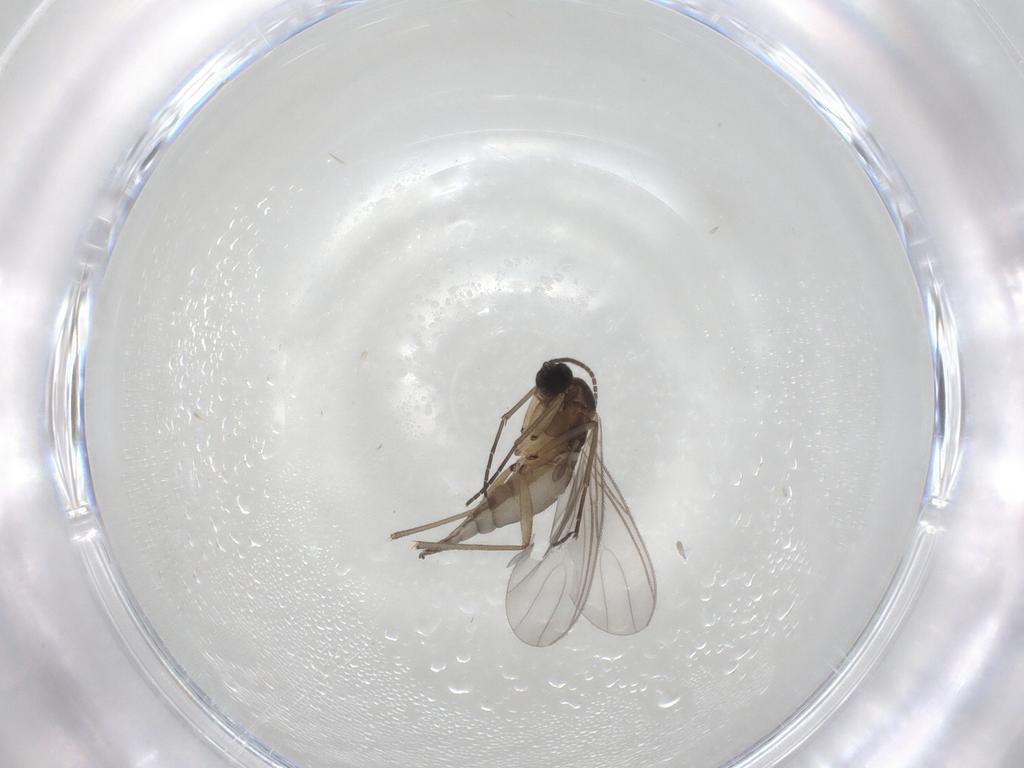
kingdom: Animalia
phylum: Arthropoda
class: Insecta
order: Diptera
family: Sciaridae
